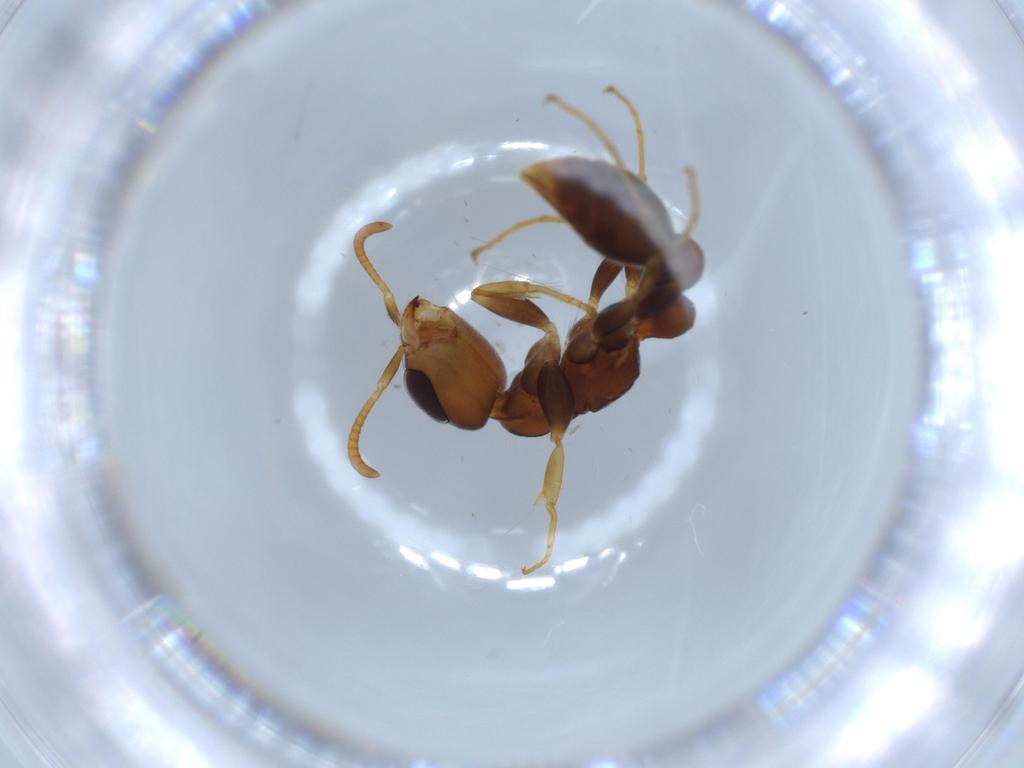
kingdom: Animalia
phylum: Arthropoda
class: Insecta
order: Hymenoptera
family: Formicidae
